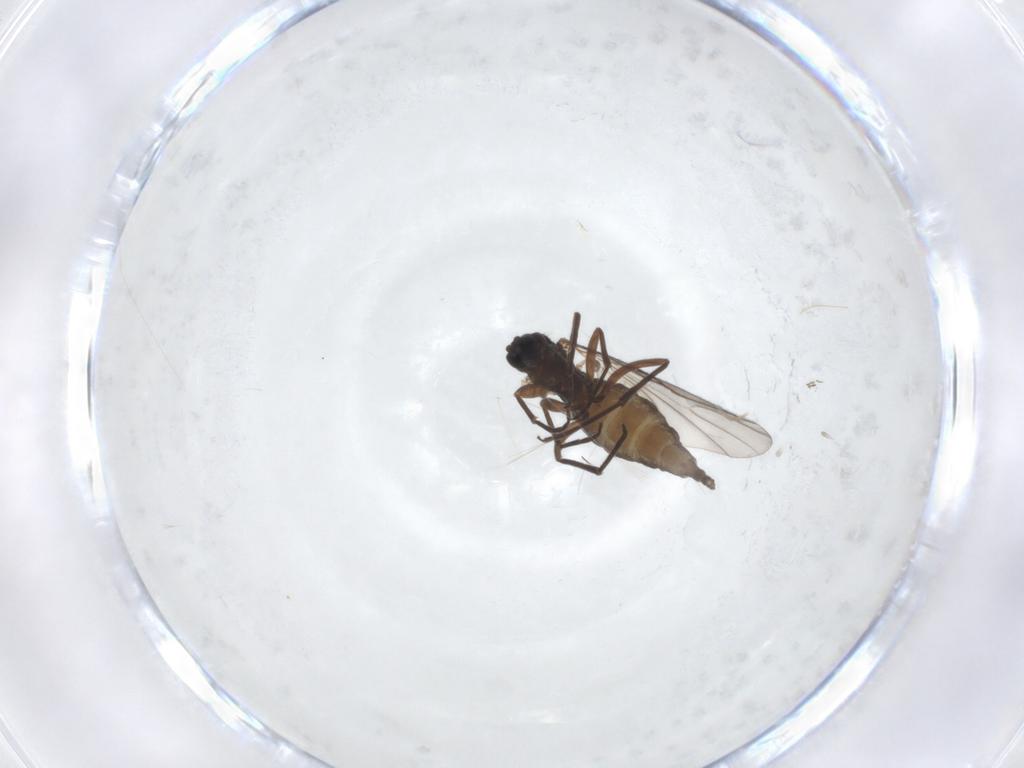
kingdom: Animalia
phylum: Arthropoda
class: Insecta
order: Diptera
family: Sciaridae
